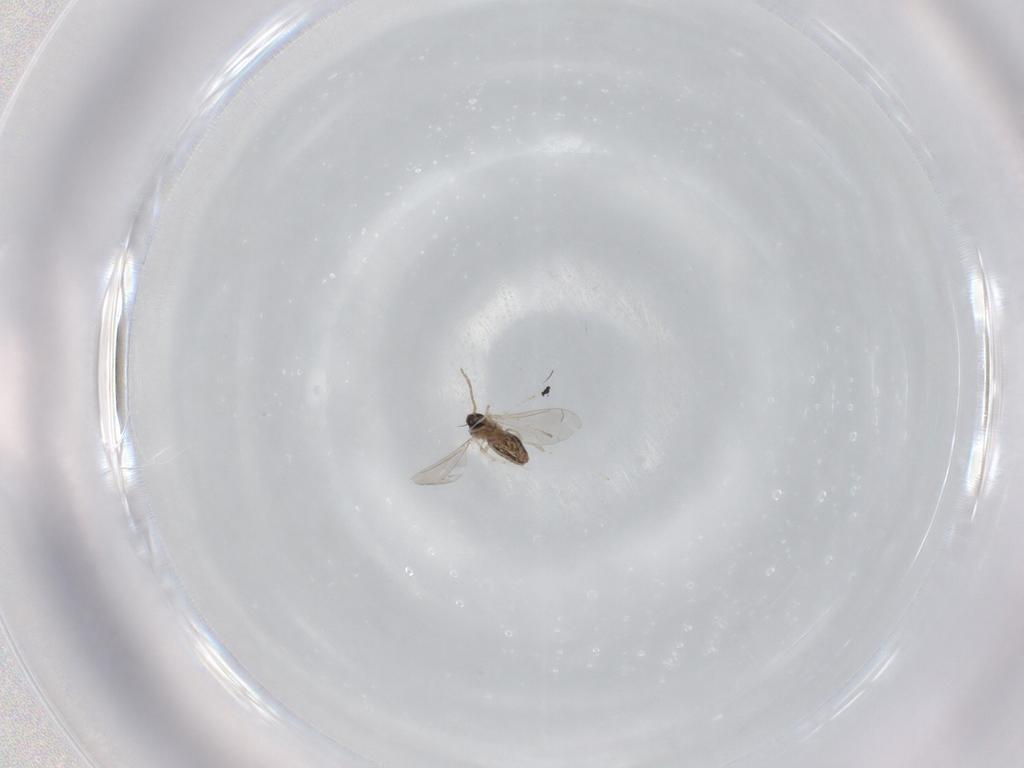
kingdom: Animalia
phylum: Arthropoda
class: Insecta
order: Diptera
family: Cecidomyiidae
